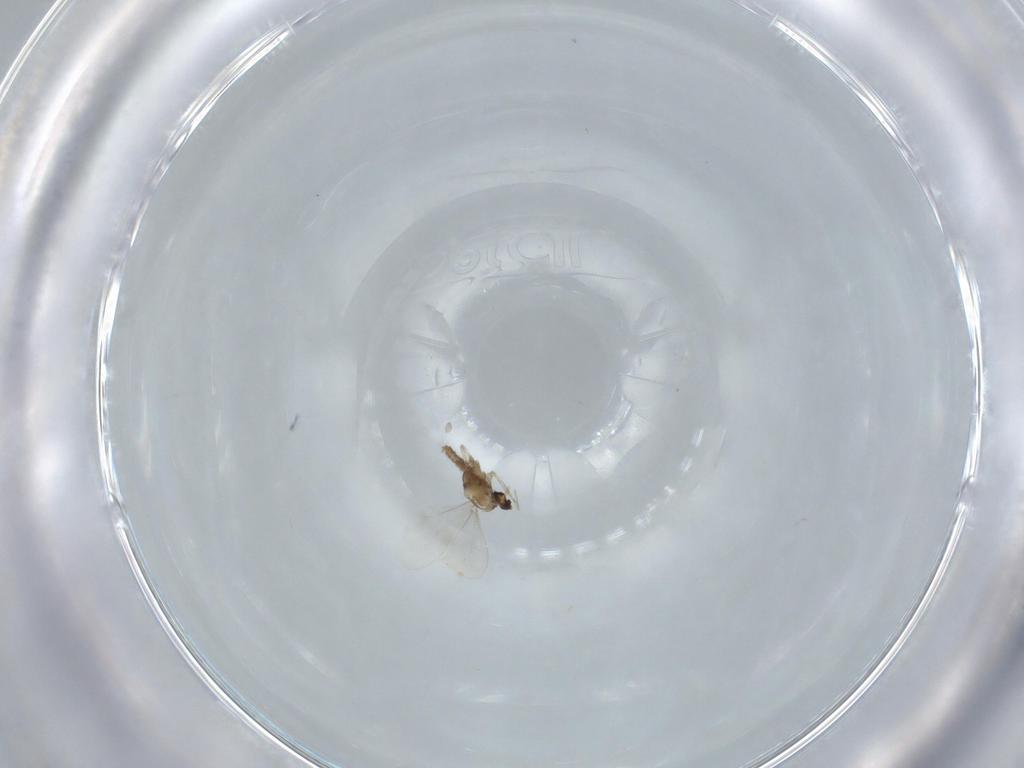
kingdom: Animalia
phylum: Arthropoda
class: Insecta
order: Diptera
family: Cecidomyiidae
